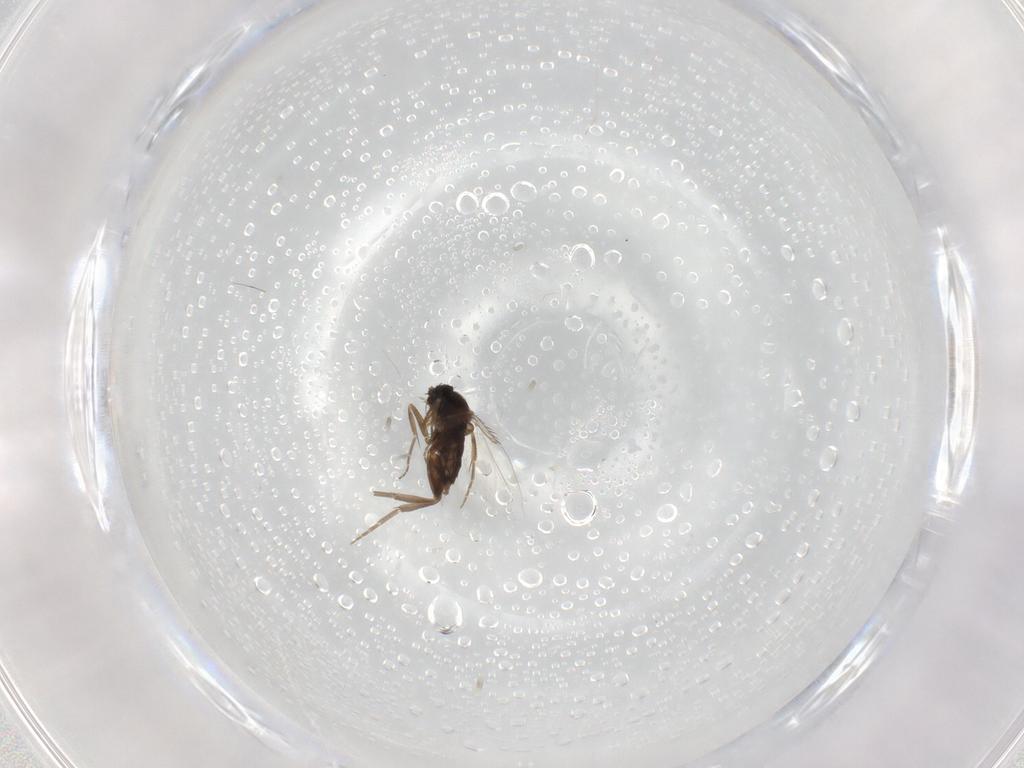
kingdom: Animalia
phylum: Arthropoda
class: Insecta
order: Diptera
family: Phoridae
